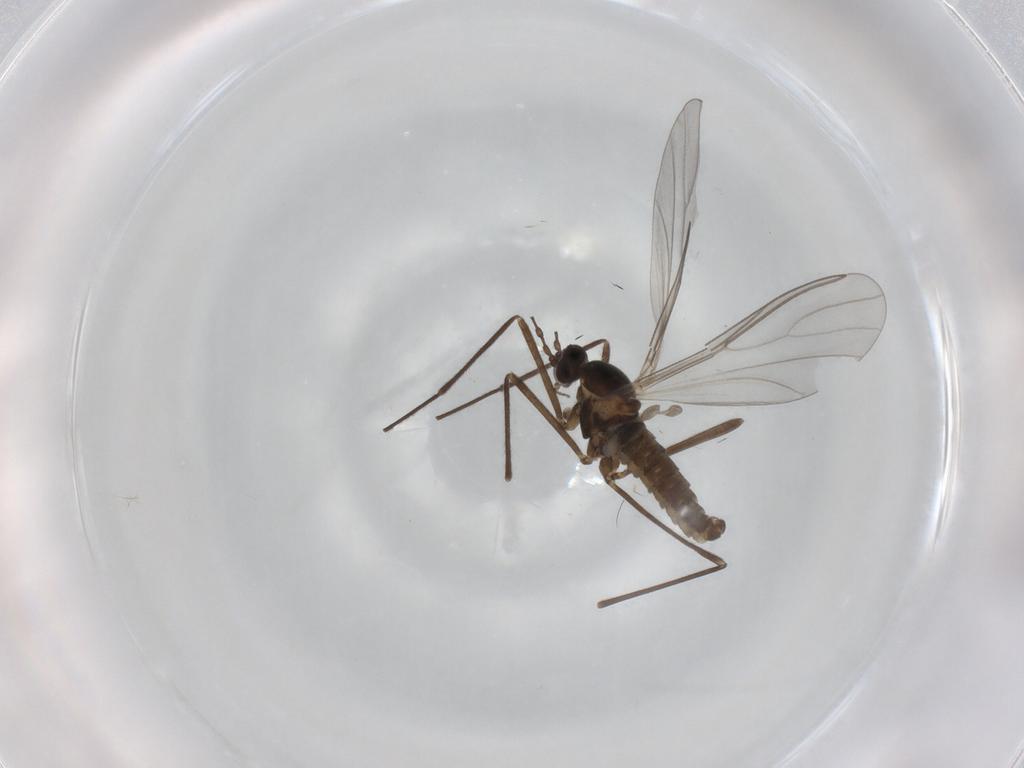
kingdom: Animalia
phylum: Arthropoda
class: Insecta
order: Diptera
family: Cecidomyiidae
